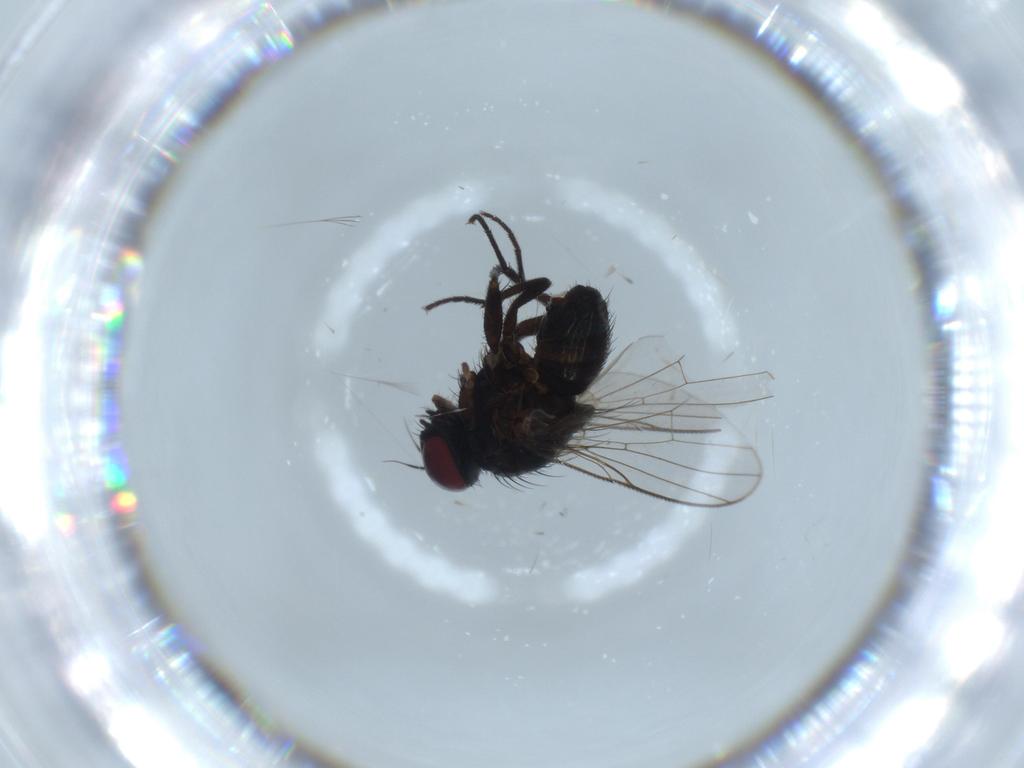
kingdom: Animalia
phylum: Arthropoda
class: Insecta
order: Diptera
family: Muscidae
